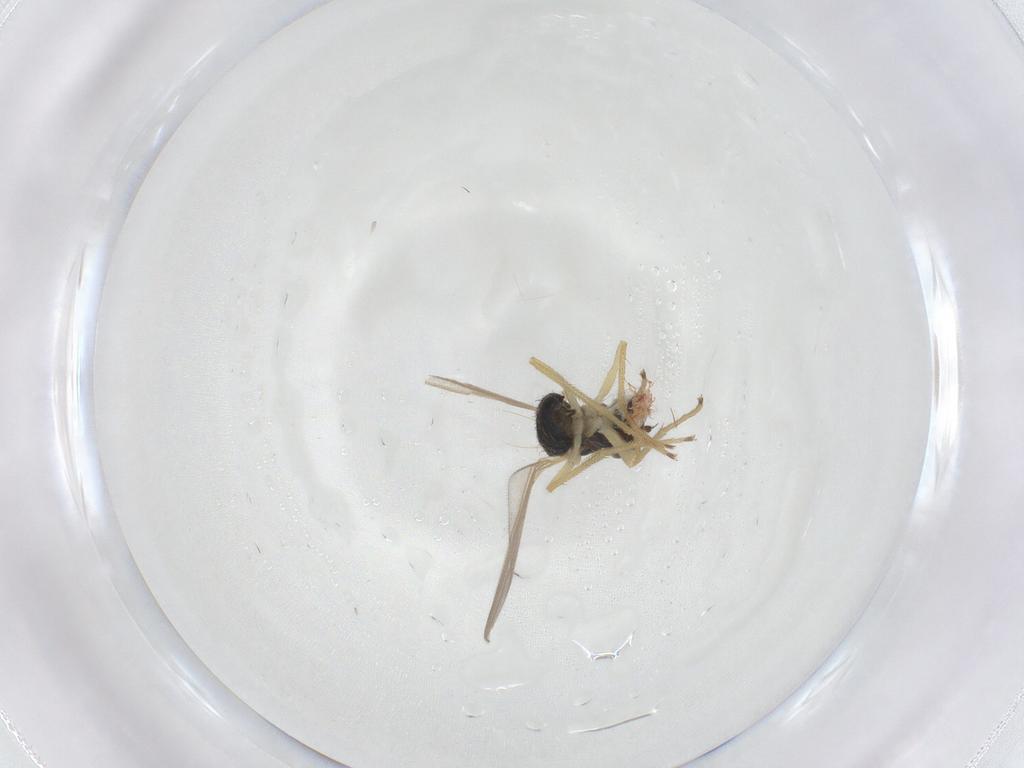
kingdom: Animalia
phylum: Arthropoda
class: Insecta
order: Diptera
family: Dolichopodidae
